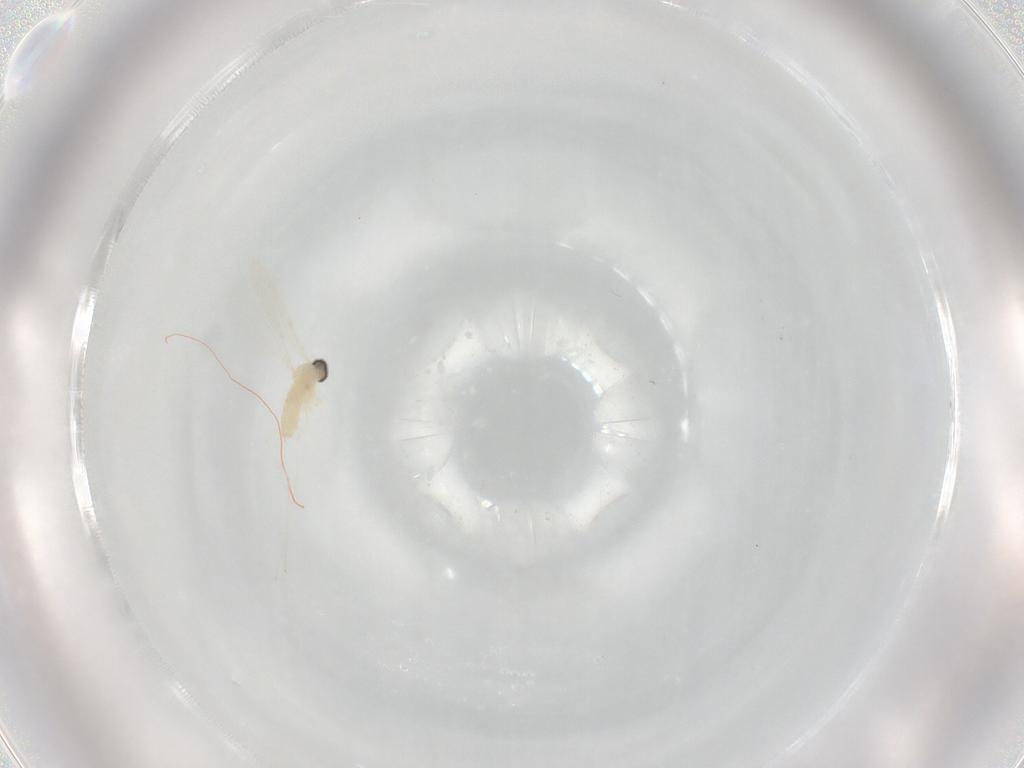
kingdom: Animalia
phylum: Arthropoda
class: Insecta
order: Diptera
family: Cecidomyiidae
